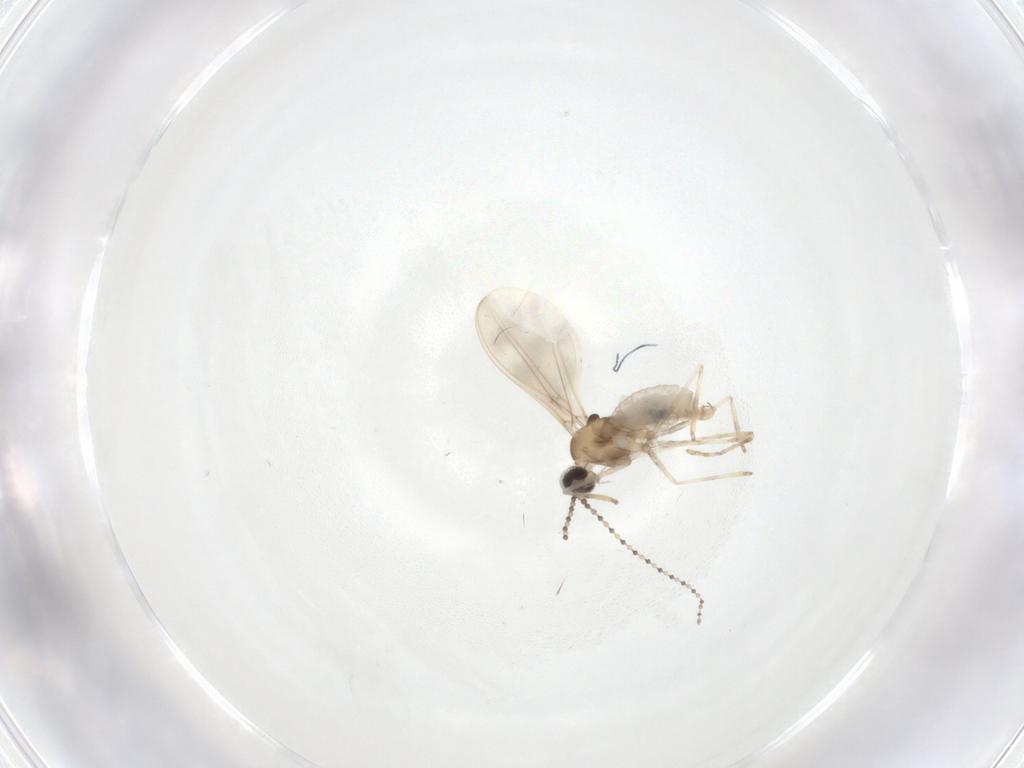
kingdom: Animalia
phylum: Arthropoda
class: Insecta
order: Diptera
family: Cecidomyiidae
